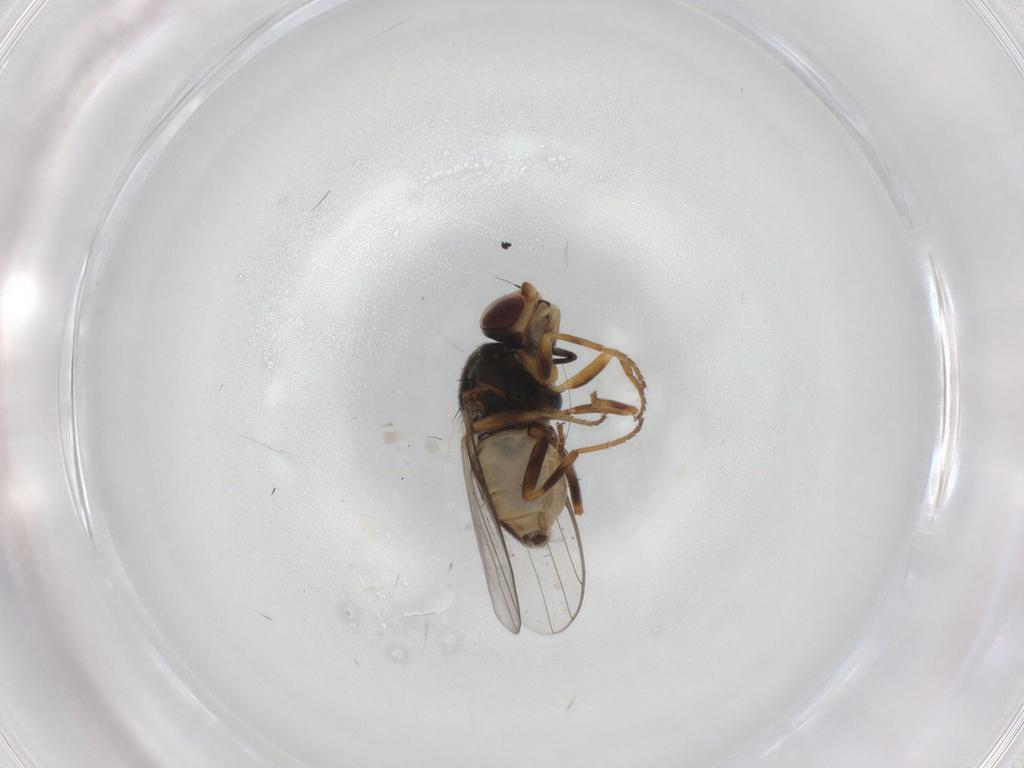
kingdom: Animalia
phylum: Arthropoda
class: Insecta
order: Diptera
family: Chloropidae
